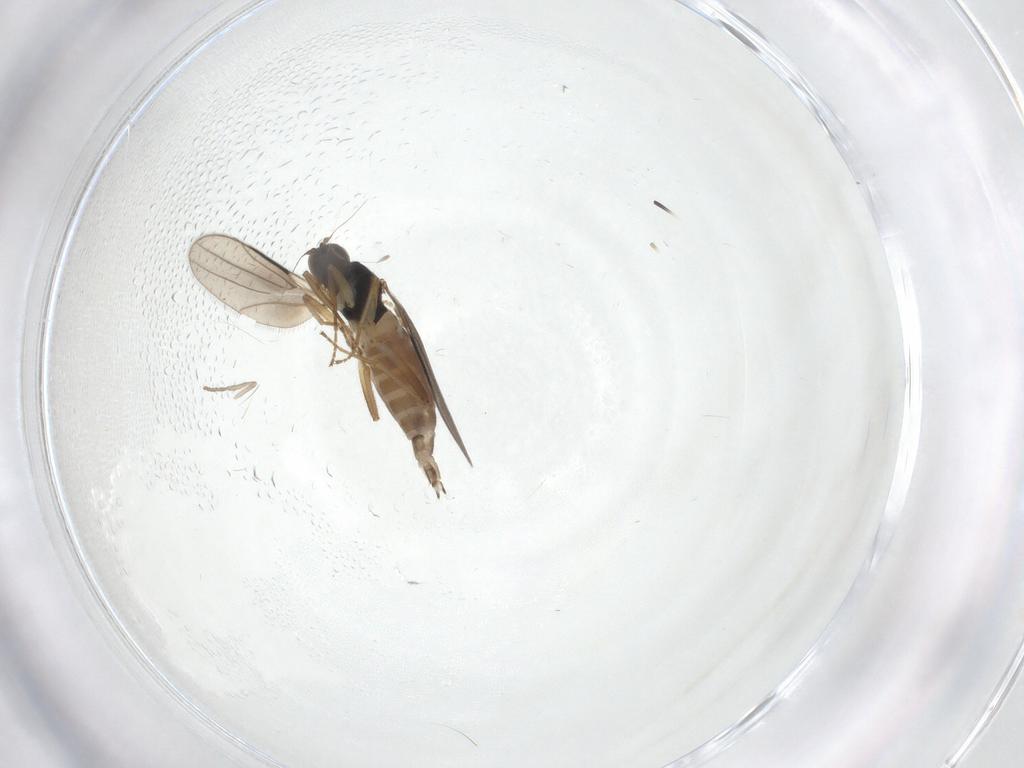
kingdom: Animalia
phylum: Arthropoda
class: Insecta
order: Diptera
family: Hybotidae
